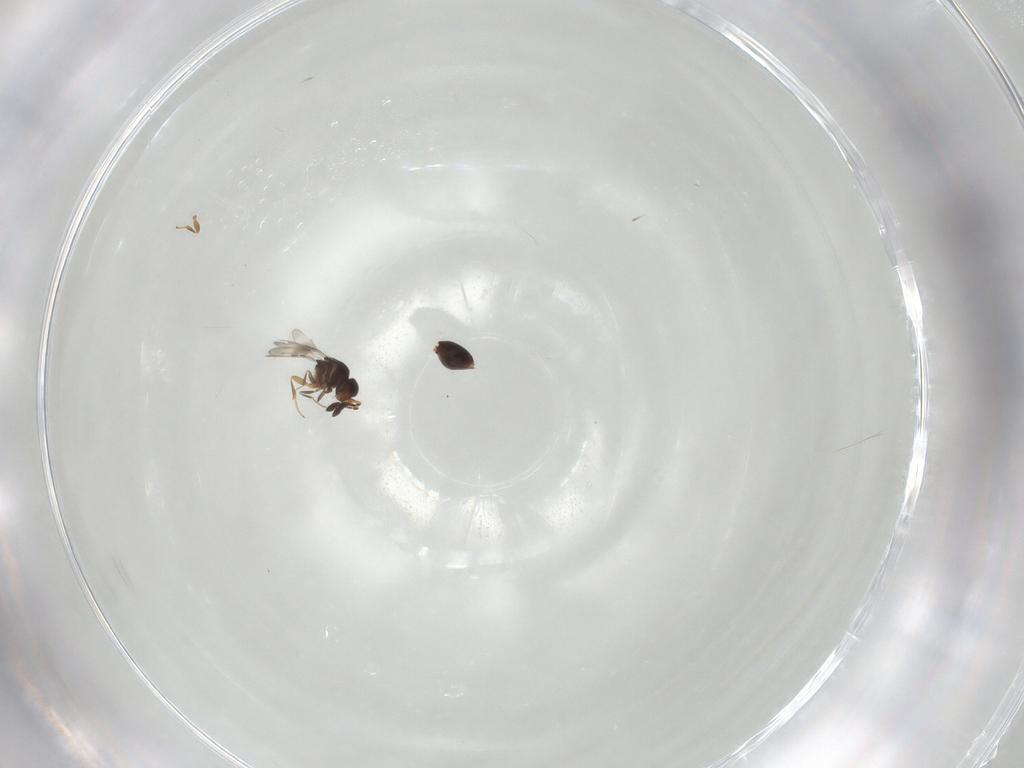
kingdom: Animalia
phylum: Arthropoda
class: Insecta
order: Hymenoptera
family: Ceraphronidae
